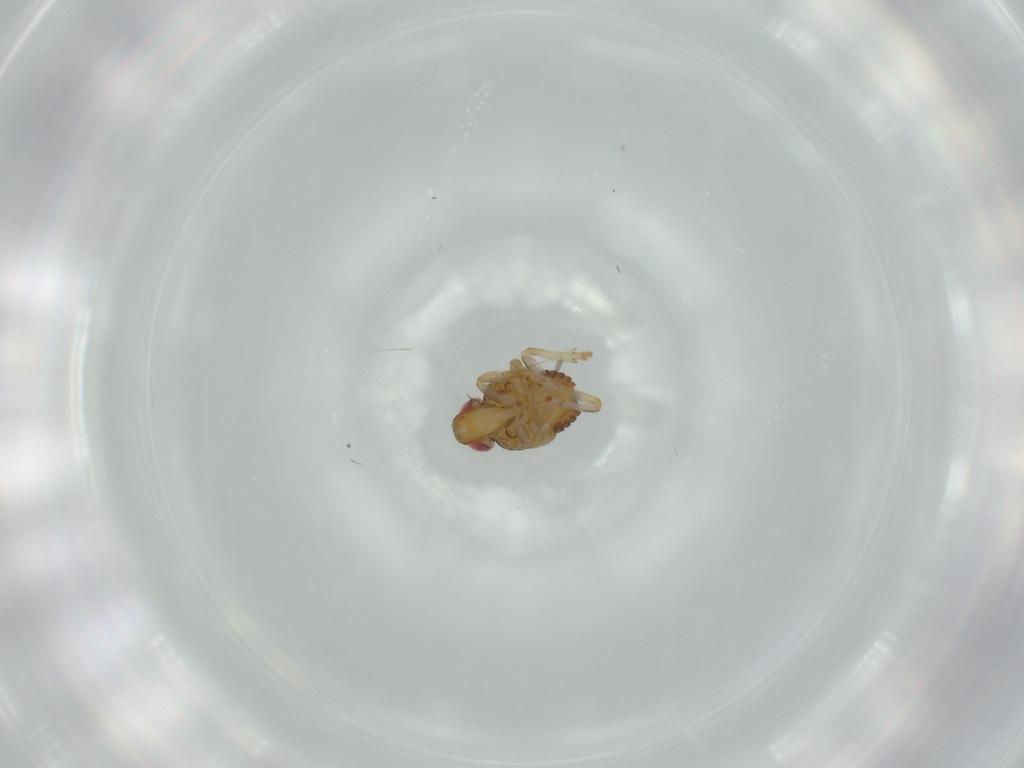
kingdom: Animalia
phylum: Arthropoda
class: Insecta
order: Hemiptera
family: Issidae
